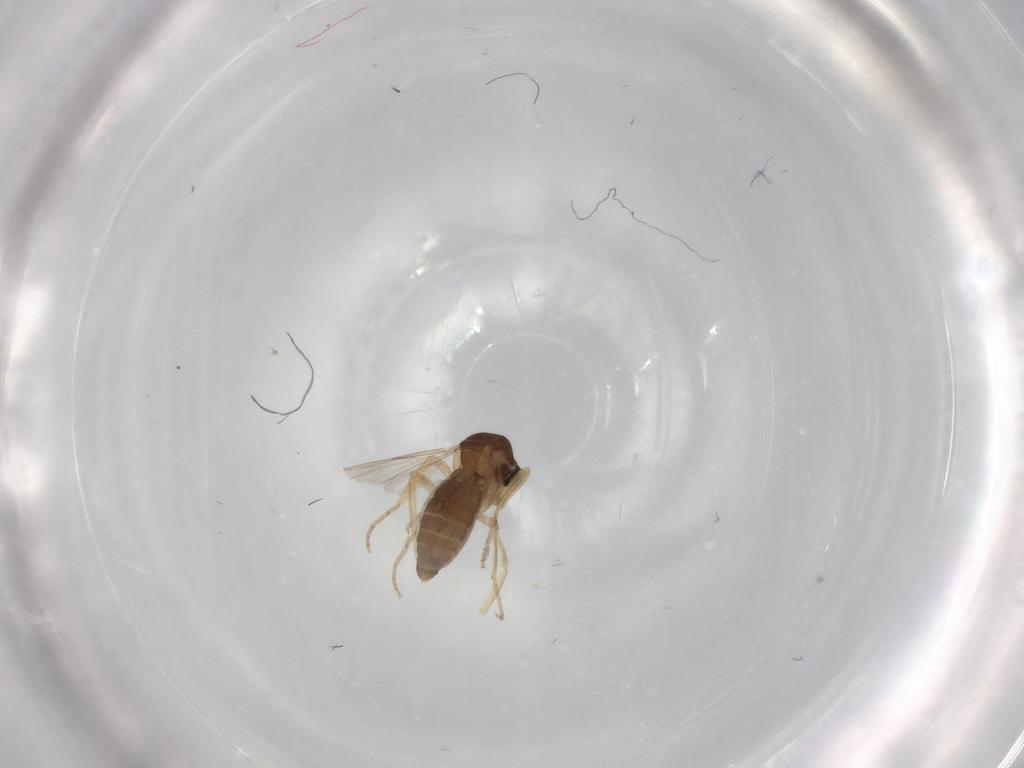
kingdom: Animalia
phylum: Arthropoda
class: Insecta
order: Diptera
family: Ceratopogonidae
